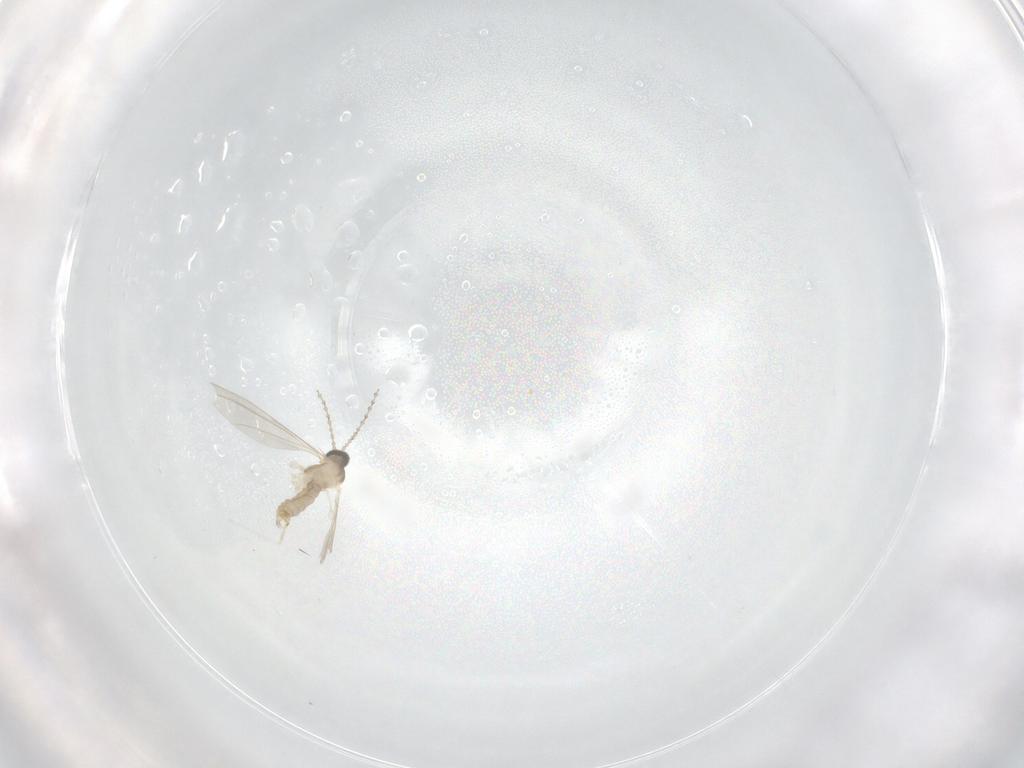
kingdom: Animalia
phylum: Arthropoda
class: Insecta
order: Diptera
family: Cecidomyiidae
